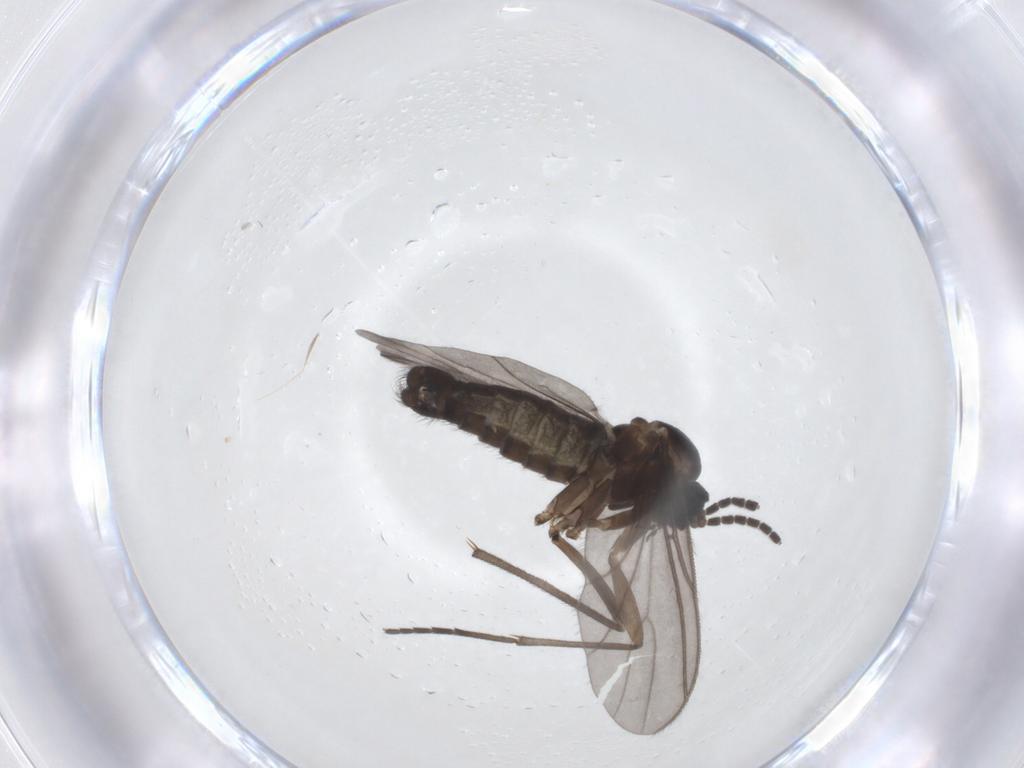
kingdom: Animalia
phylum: Arthropoda
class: Insecta
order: Diptera
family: Sciaridae
